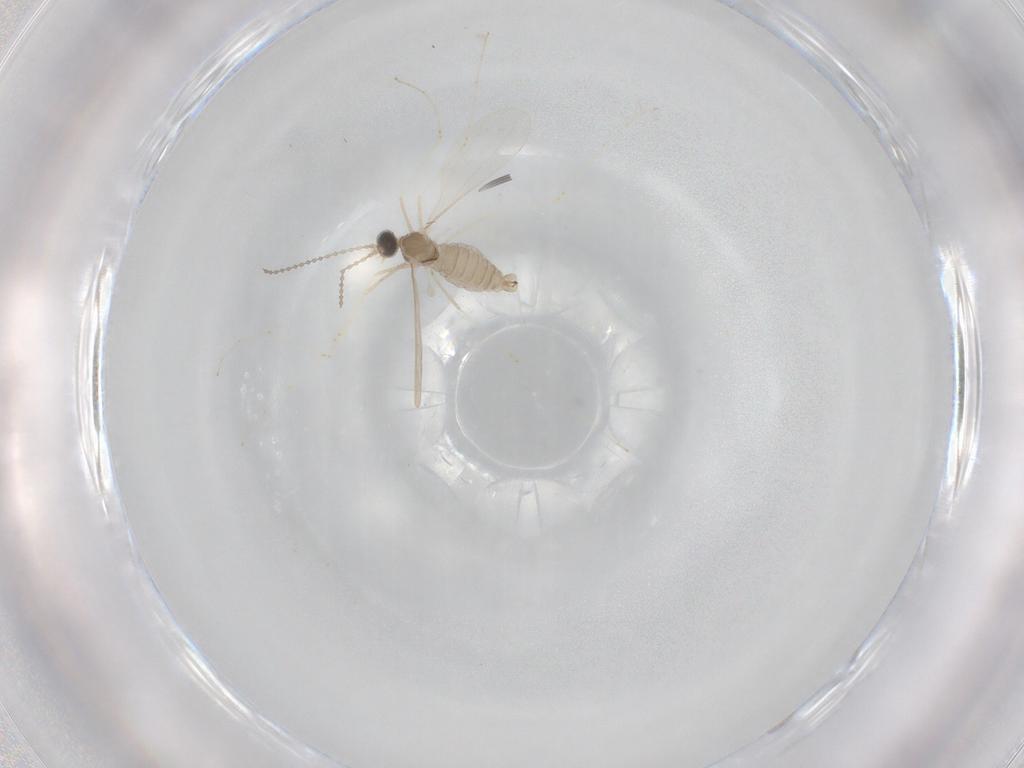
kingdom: Animalia
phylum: Arthropoda
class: Insecta
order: Diptera
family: Cecidomyiidae
